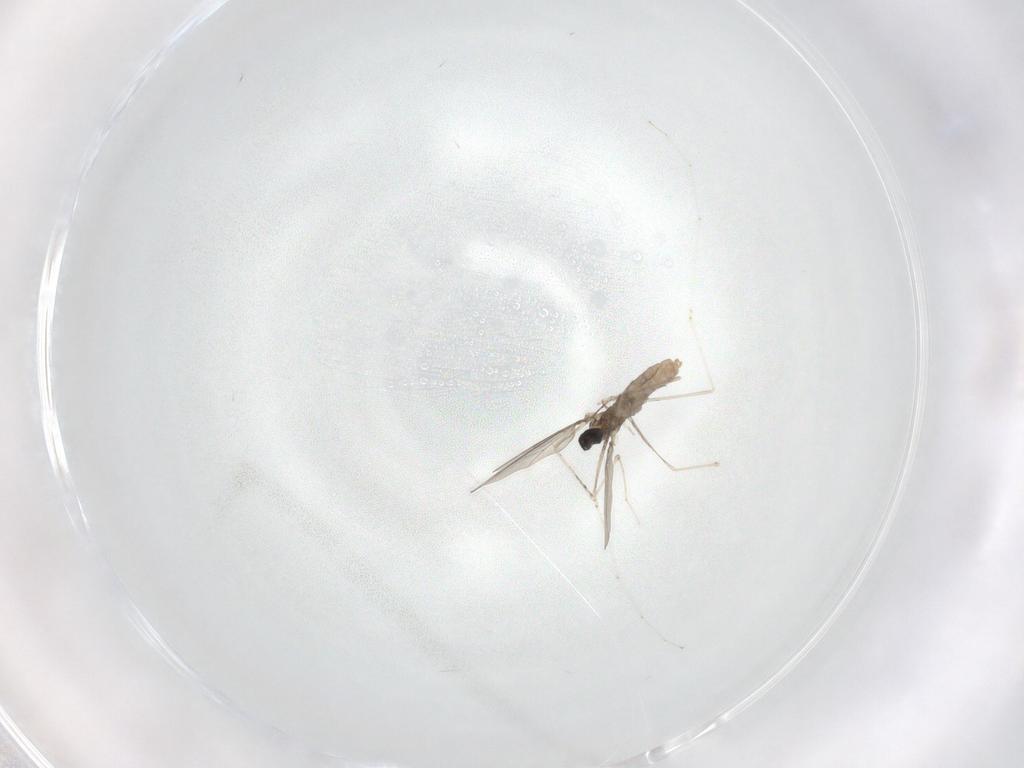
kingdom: Animalia
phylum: Arthropoda
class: Insecta
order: Diptera
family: Cecidomyiidae
